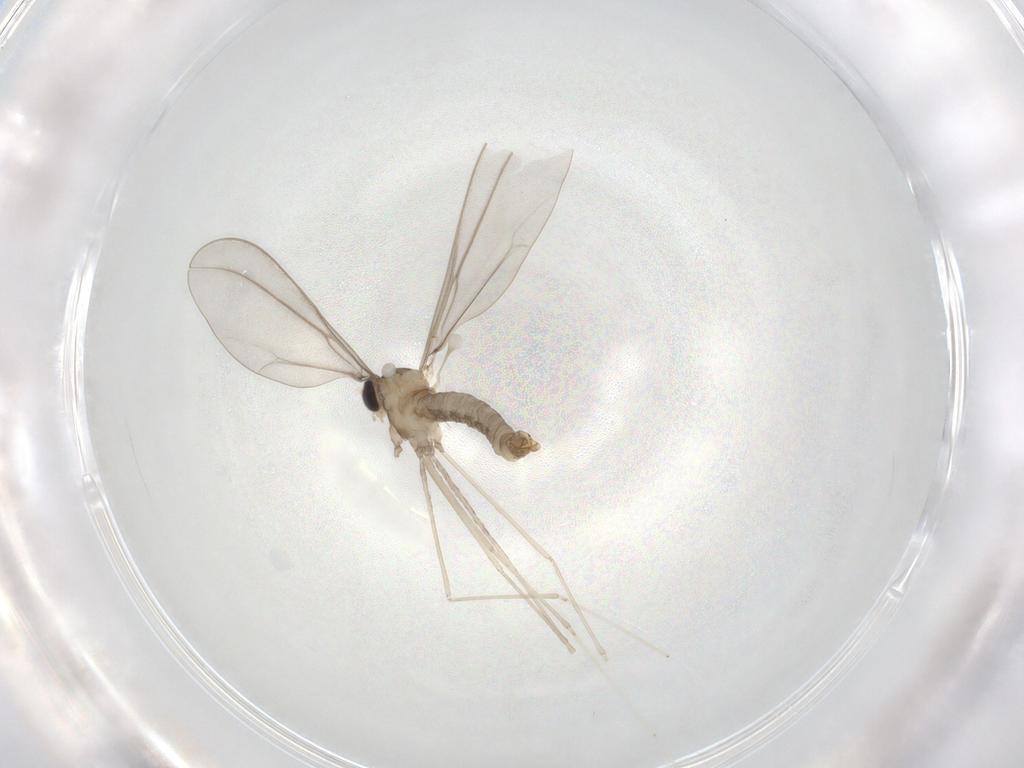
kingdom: Animalia
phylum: Arthropoda
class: Insecta
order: Diptera
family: Cecidomyiidae
